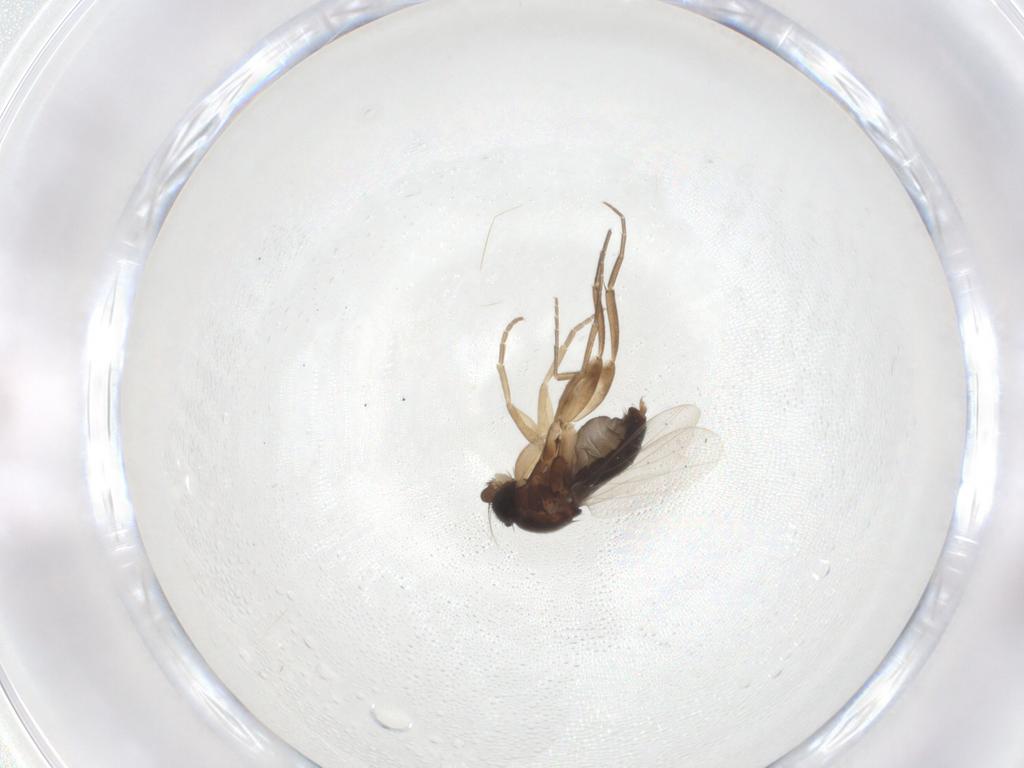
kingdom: Animalia
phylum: Arthropoda
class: Insecta
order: Diptera
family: Phoridae
